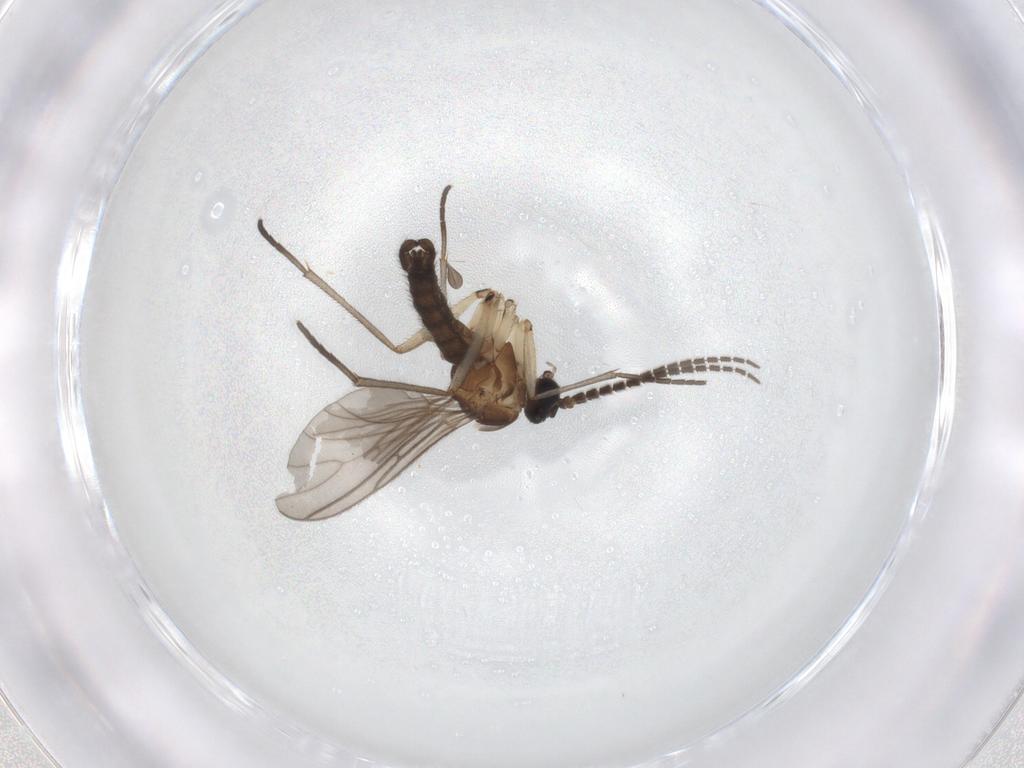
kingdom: Animalia
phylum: Arthropoda
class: Insecta
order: Diptera
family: Sciaridae
